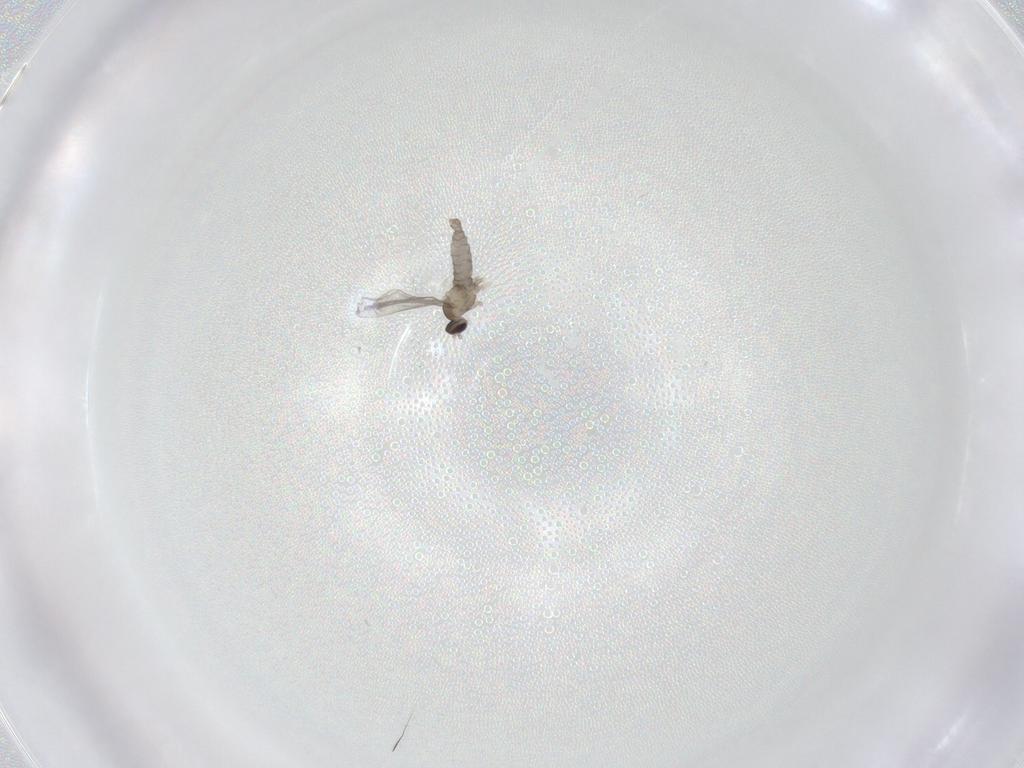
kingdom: Animalia
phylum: Arthropoda
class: Insecta
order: Diptera
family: Cecidomyiidae
